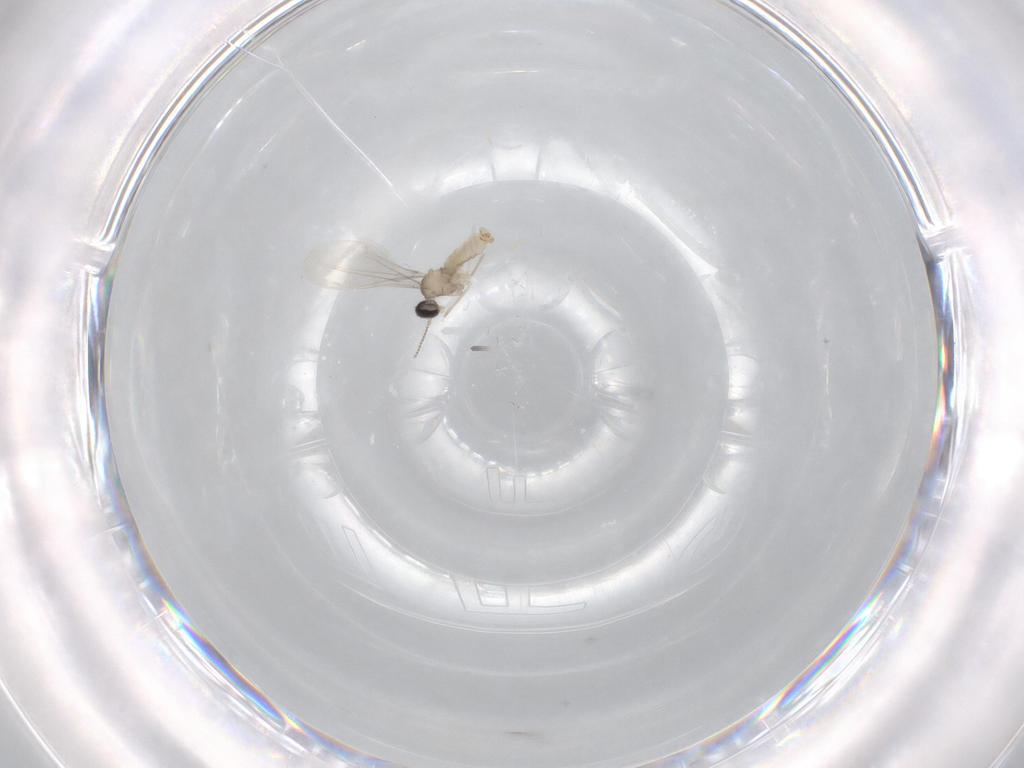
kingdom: Animalia
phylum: Arthropoda
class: Insecta
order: Diptera
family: Cecidomyiidae
